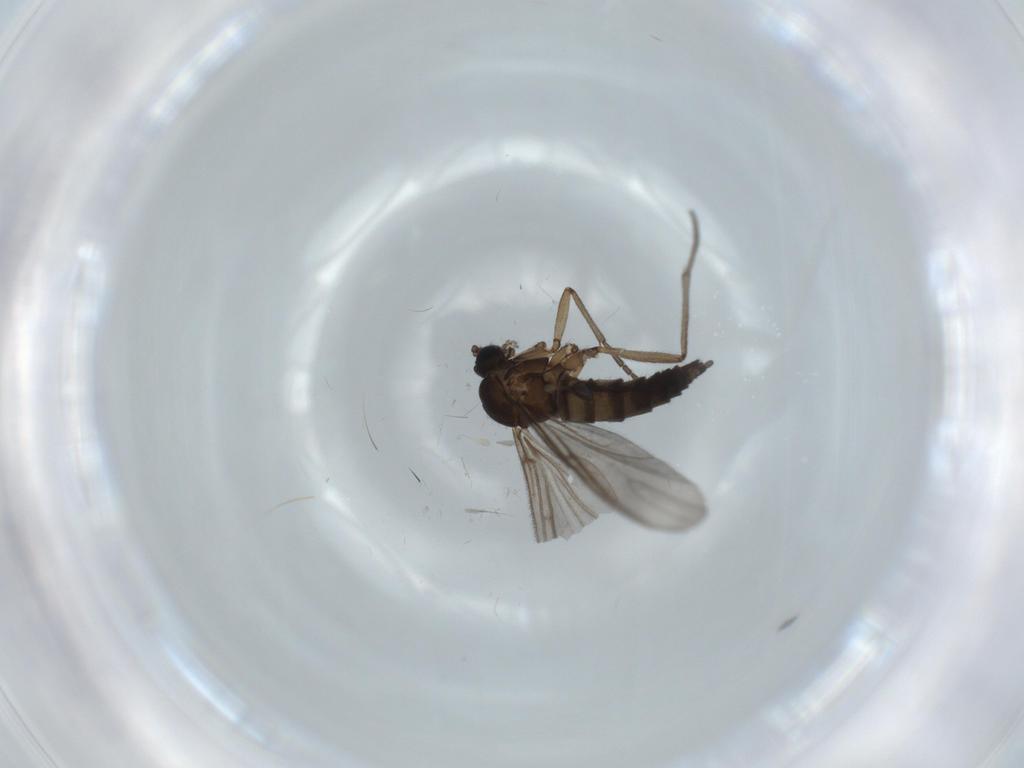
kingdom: Animalia
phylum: Arthropoda
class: Insecta
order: Diptera
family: Sciaridae
